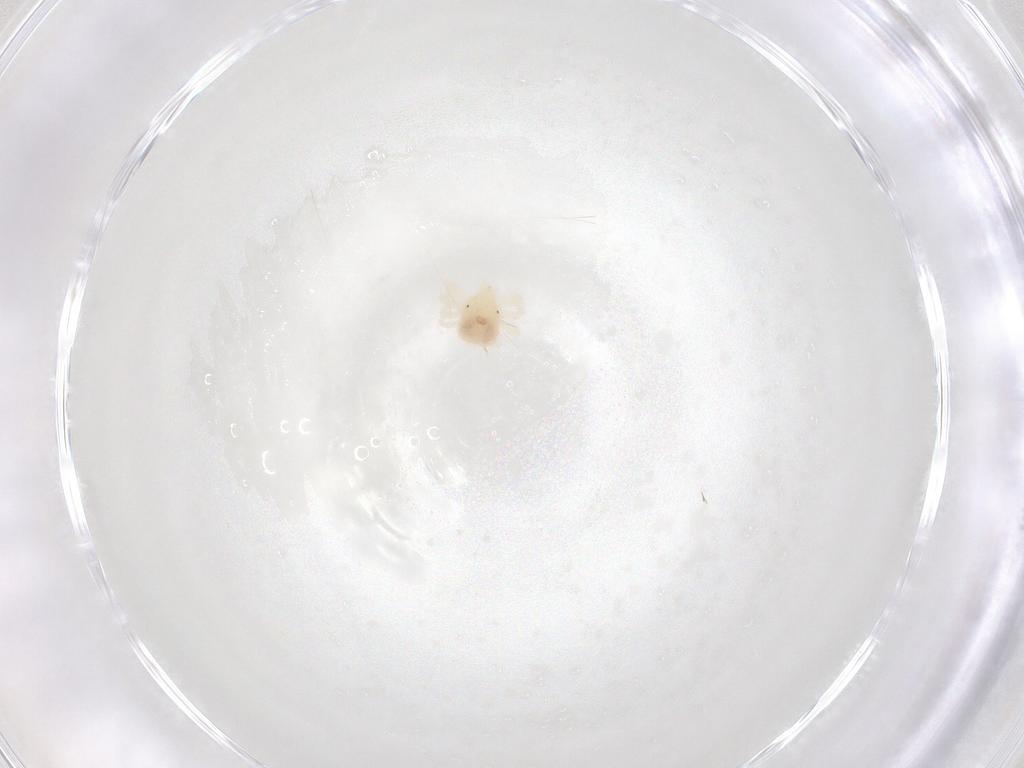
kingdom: Animalia
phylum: Arthropoda
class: Arachnida
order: Trombidiformes
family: Anystidae
